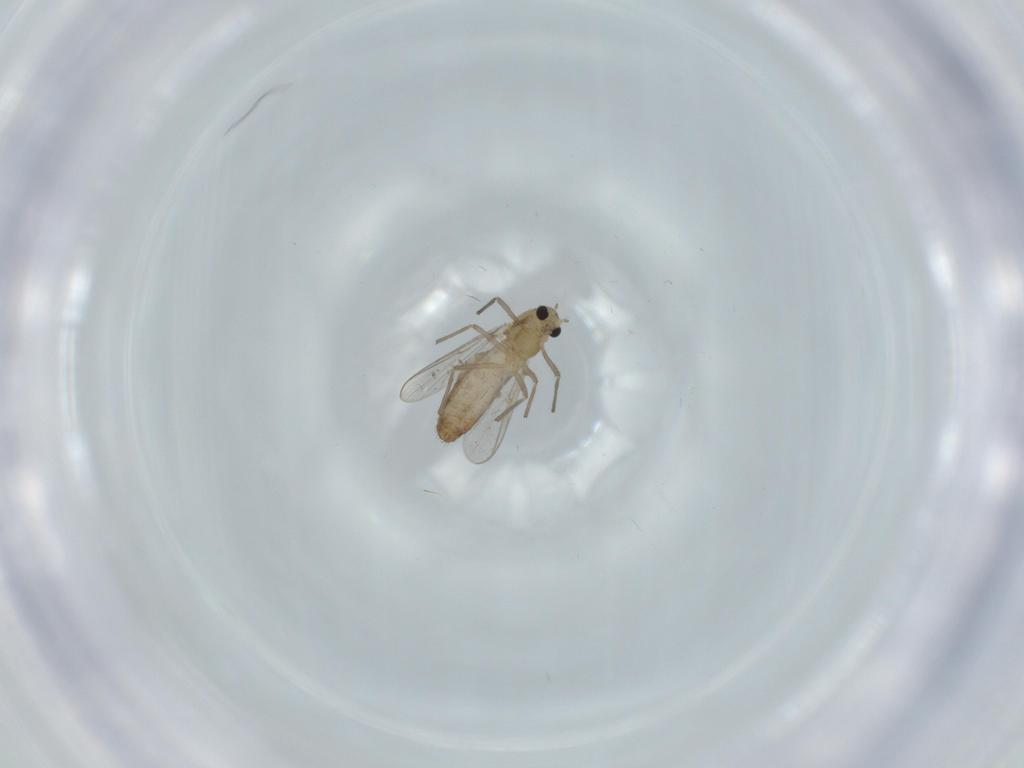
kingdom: Animalia
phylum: Arthropoda
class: Insecta
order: Diptera
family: Chironomidae
